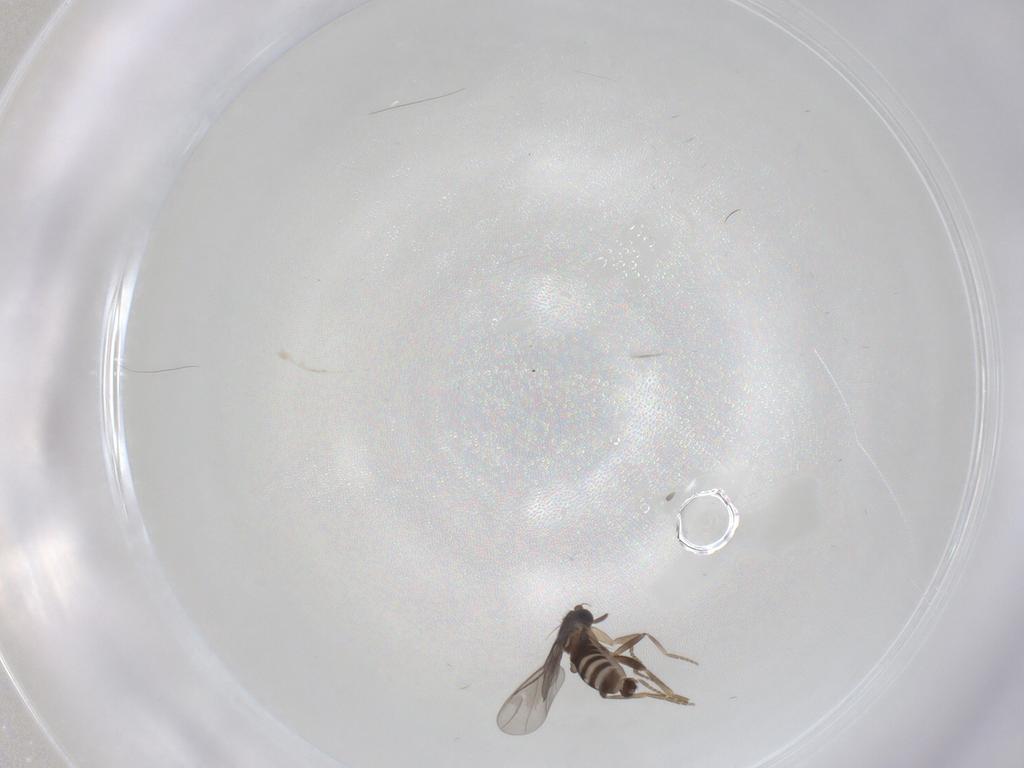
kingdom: Animalia
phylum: Arthropoda
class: Insecta
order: Diptera
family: Phoridae
